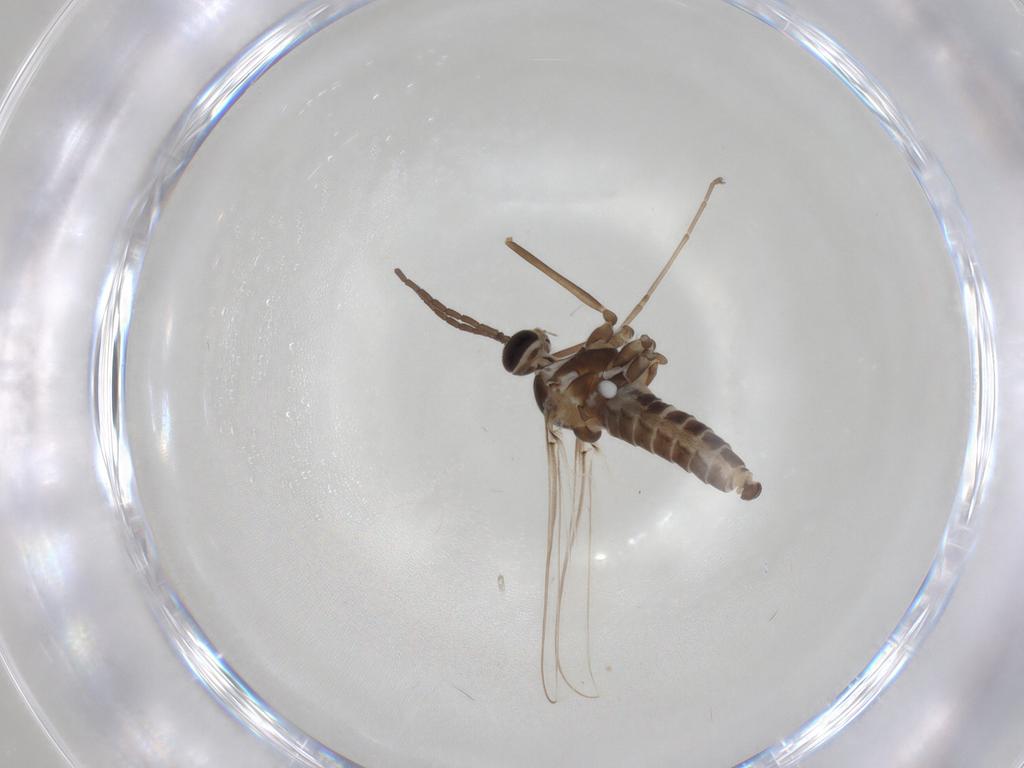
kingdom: Animalia
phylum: Arthropoda
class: Insecta
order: Diptera
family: Cecidomyiidae
